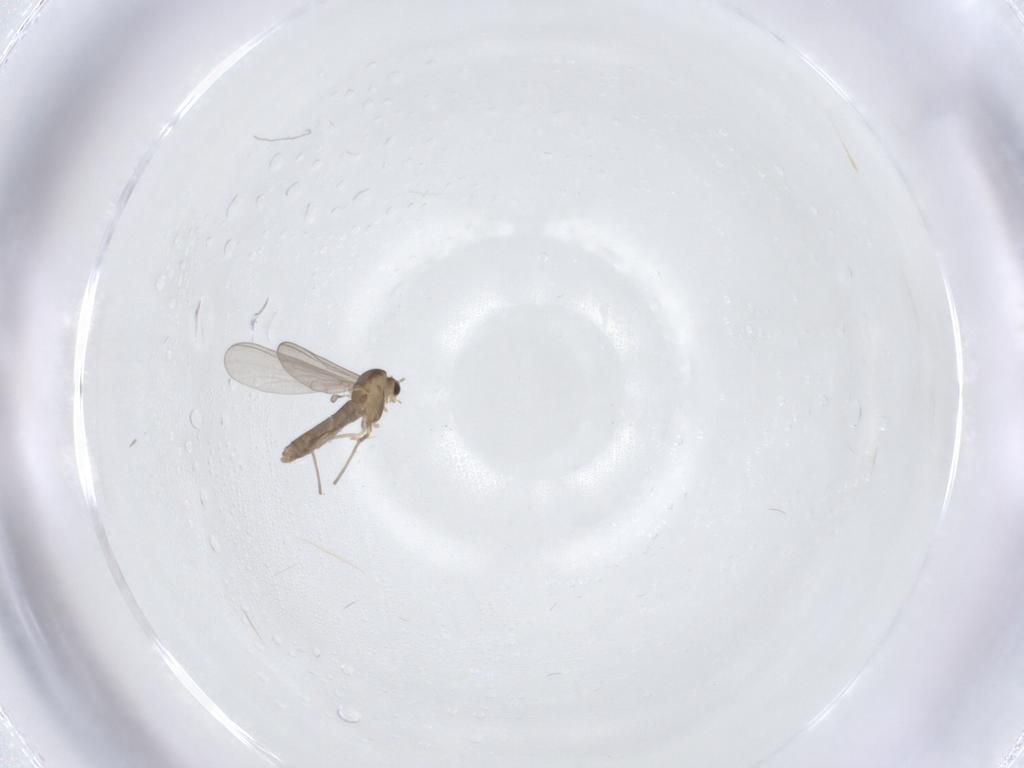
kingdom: Animalia
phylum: Arthropoda
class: Insecta
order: Diptera
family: Chironomidae
